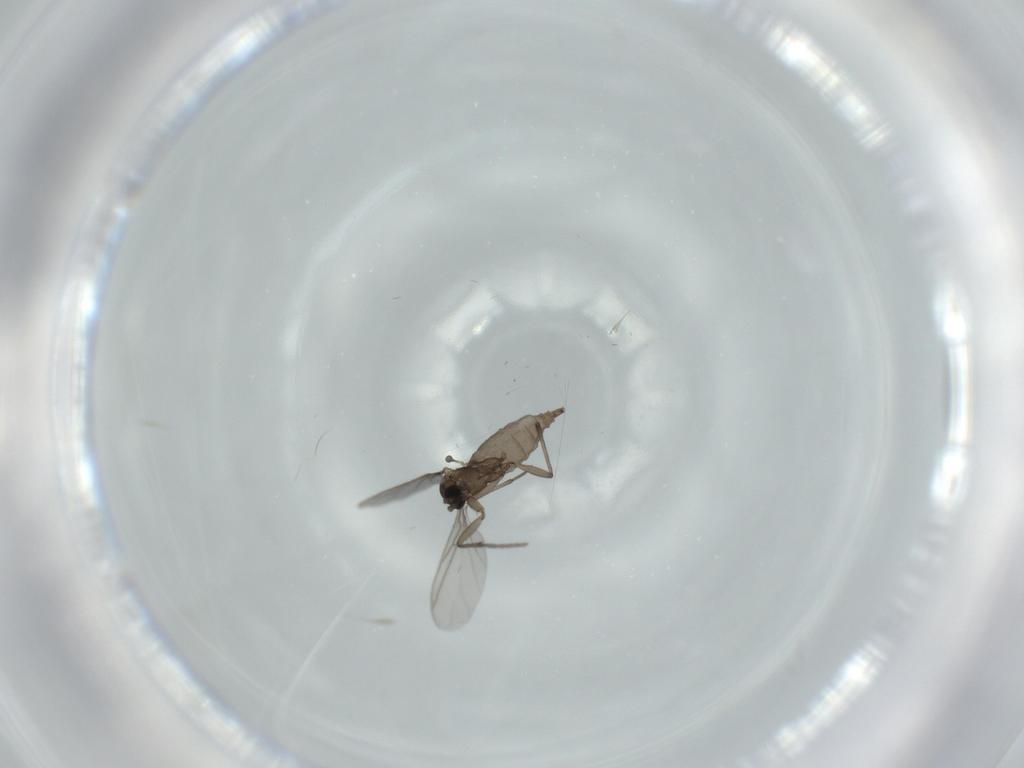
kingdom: Animalia
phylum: Arthropoda
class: Insecta
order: Diptera
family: Sciaridae
